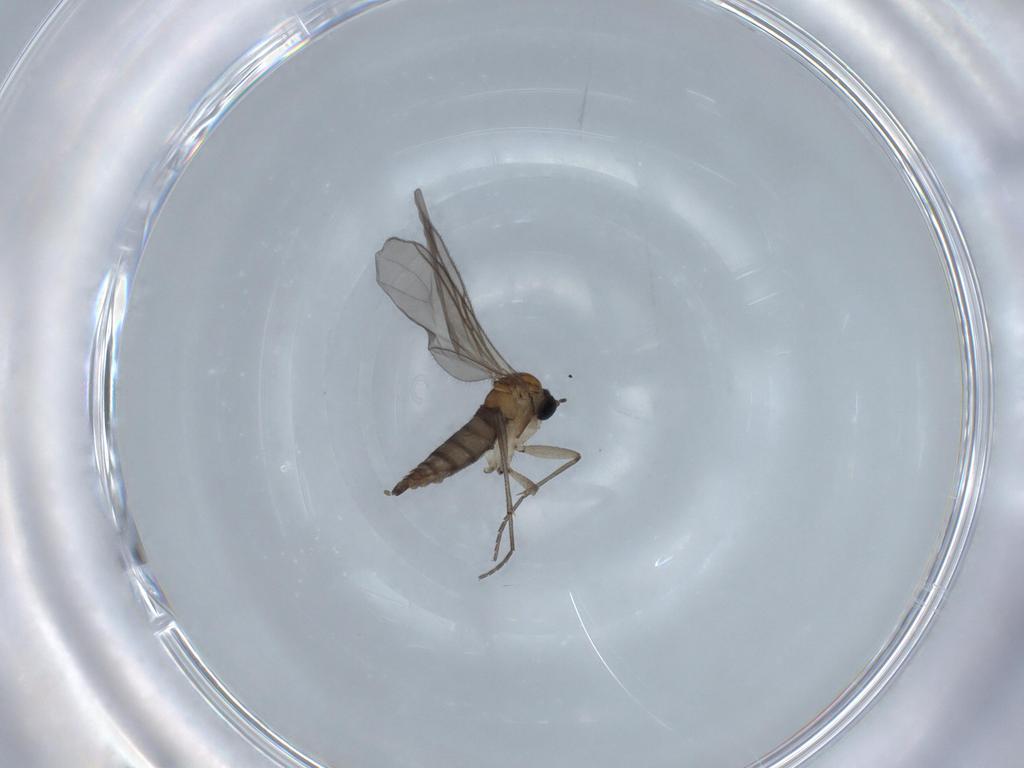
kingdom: Animalia
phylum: Arthropoda
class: Insecta
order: Diptera
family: Sciaridae
